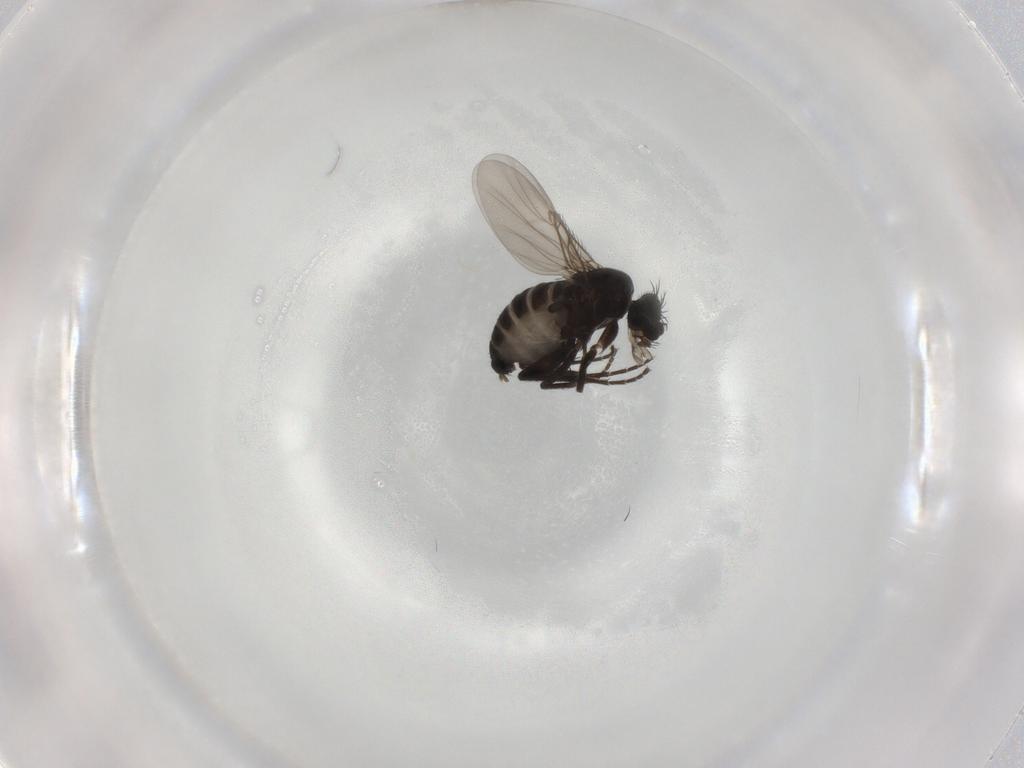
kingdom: Animalia
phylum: Arthropoda
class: Insecta
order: Diptera
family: Phoridae
